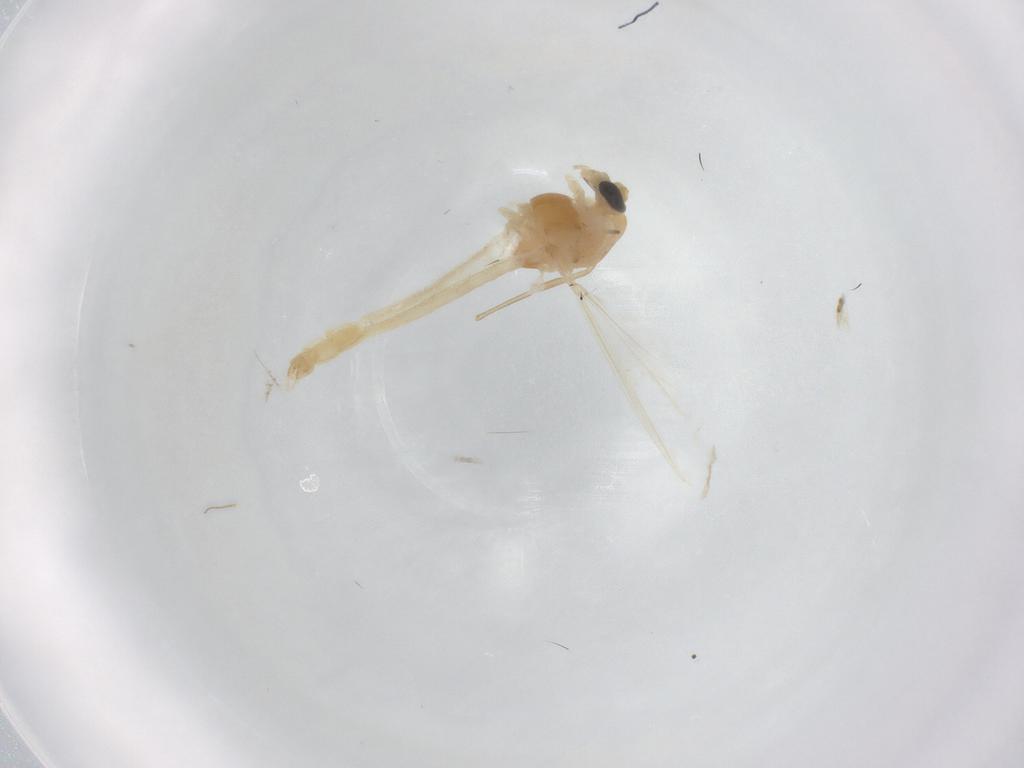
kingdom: Animalia
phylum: Arthropoda
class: Insecta
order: Diptera
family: Chironomidae
